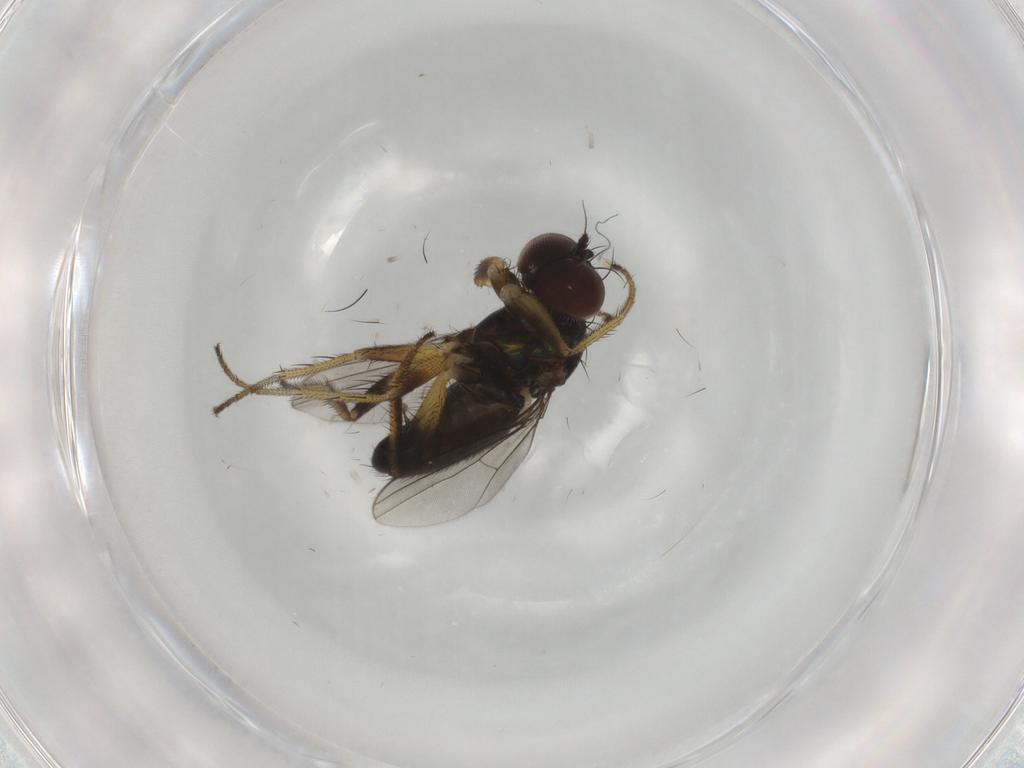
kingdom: Animalia
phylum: Arthropoda
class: Insecta
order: Diptera
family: Dolichopodidae
